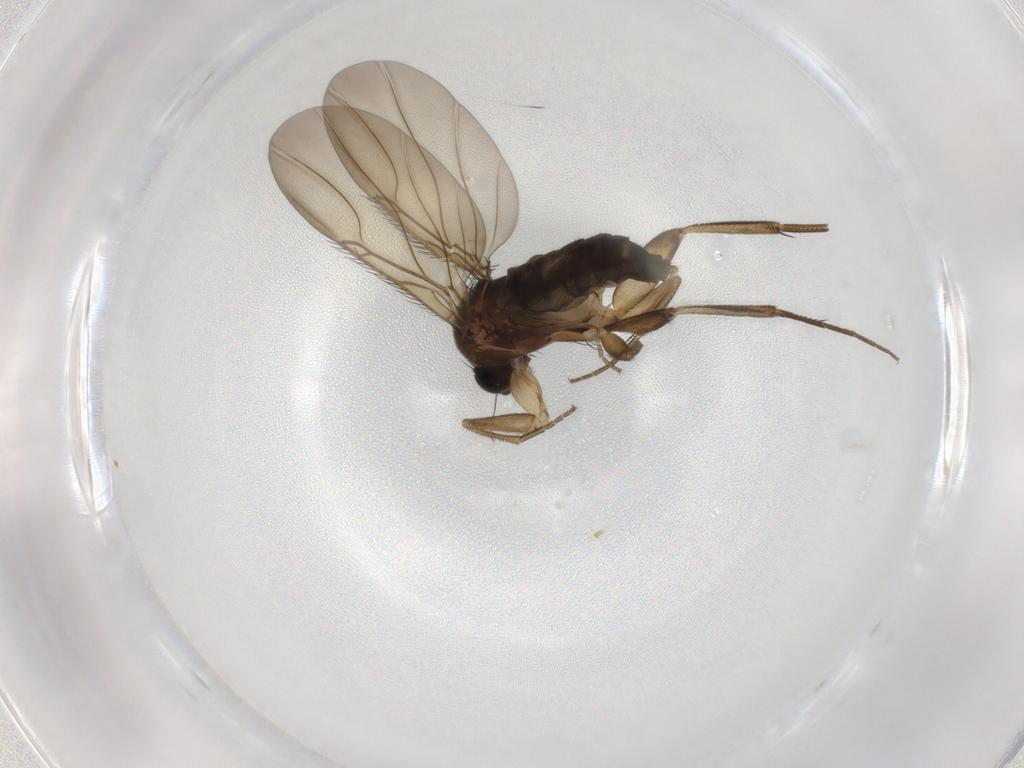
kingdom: Animalia
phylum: Arthropoda
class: Insecta
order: Diptera
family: Phoridae
